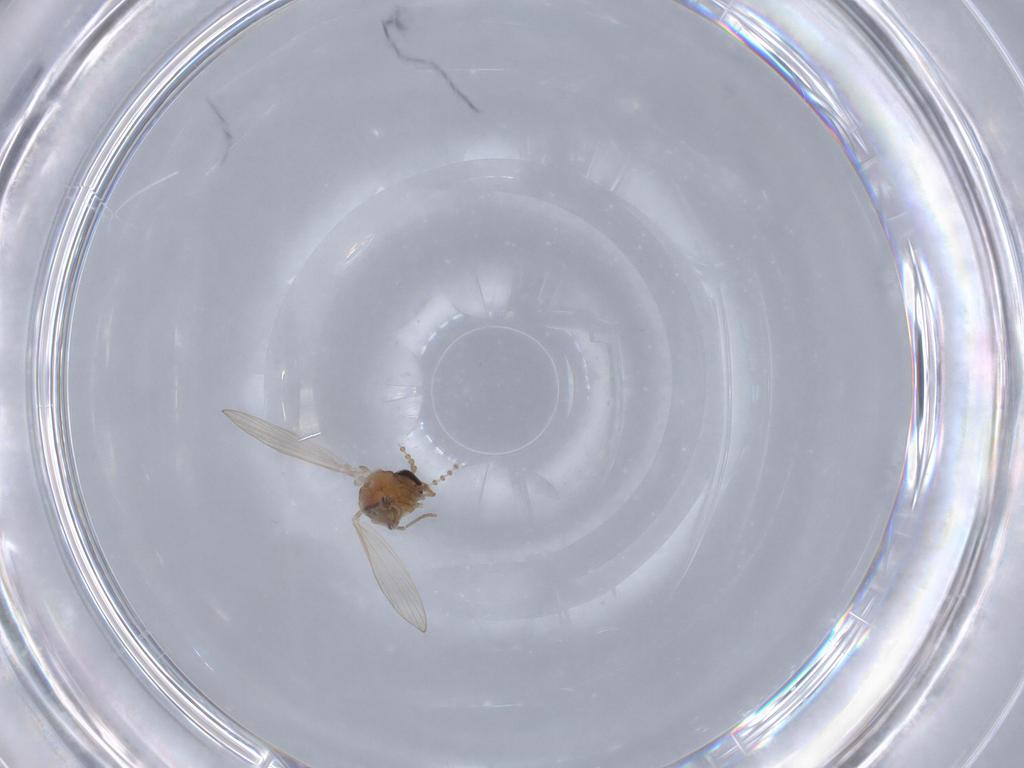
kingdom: Animalia
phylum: Arthropoda
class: Insecta
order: Diptera
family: Psychodidae
